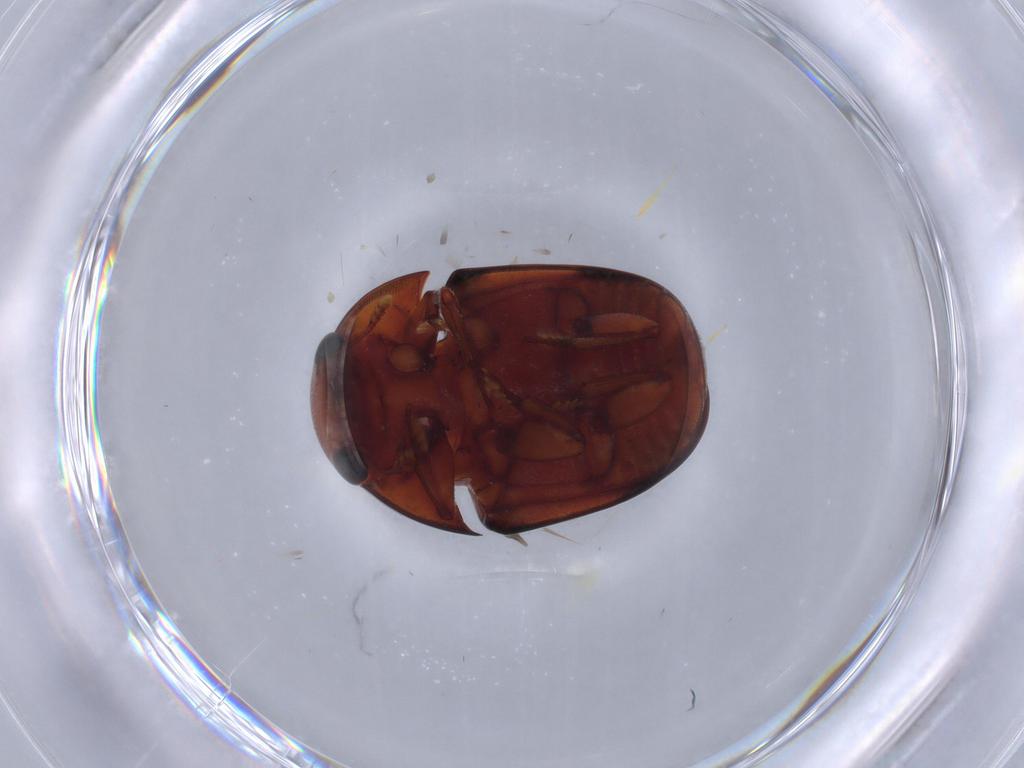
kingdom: Animalia
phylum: Arthropoda
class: Insecta
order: Coleoptera
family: Nitidulidae
